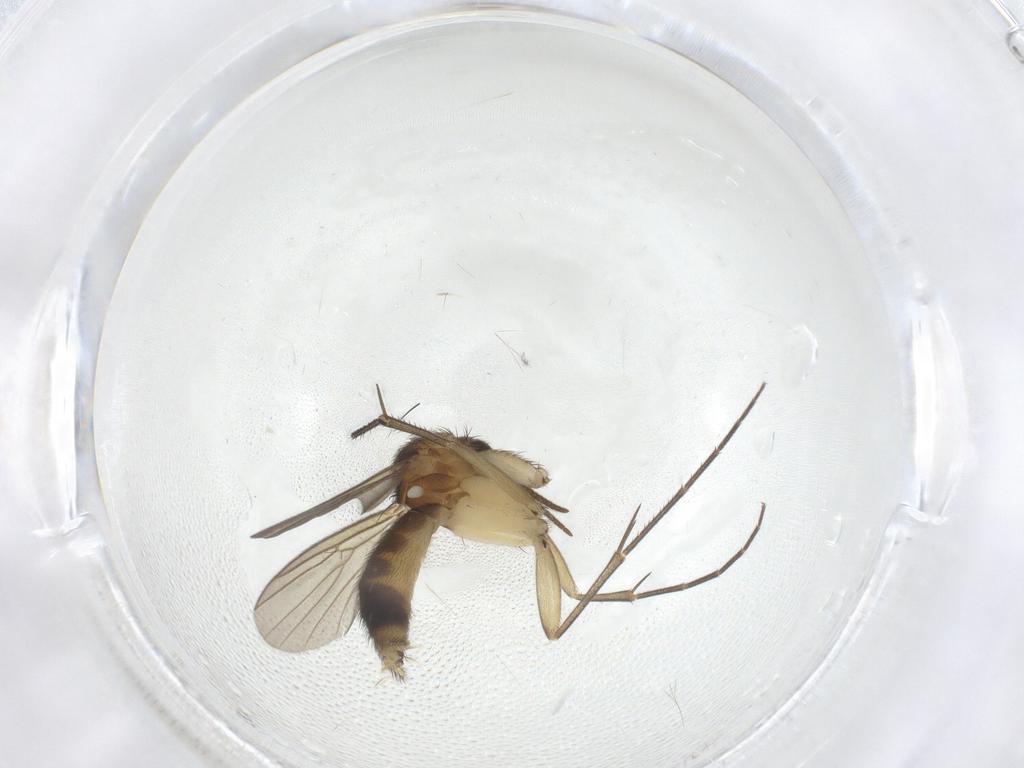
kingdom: Animalia
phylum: Arthropoda
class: Insecta
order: Diptera
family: Mycetophilidae
